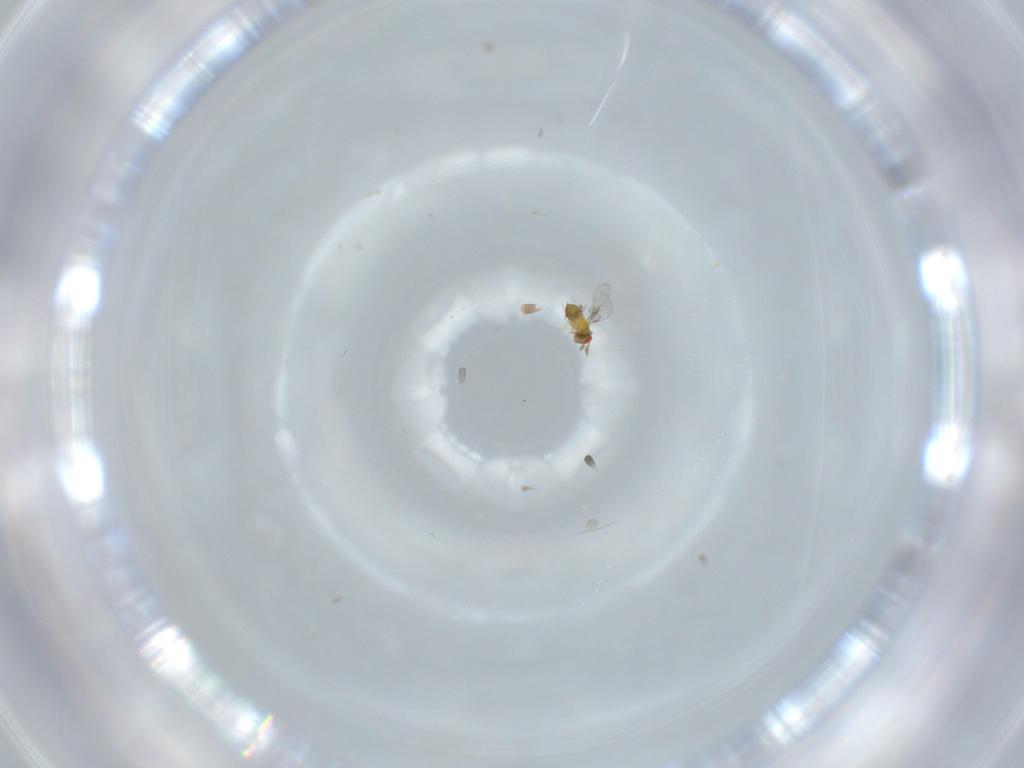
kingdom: Animalia
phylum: Arthropoda
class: Insecta
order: Hymenoptera
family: Trichogrammatidae
